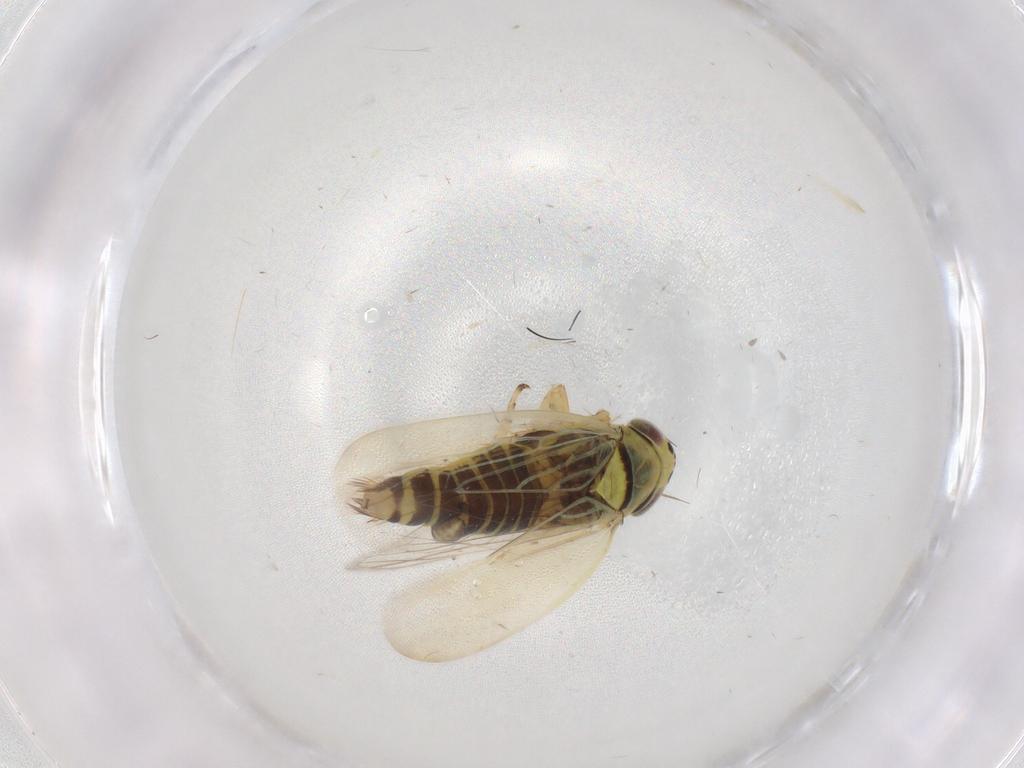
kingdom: Animalia
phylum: Arthropoda
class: Insecta
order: Hemiptera
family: Cicadellidae
